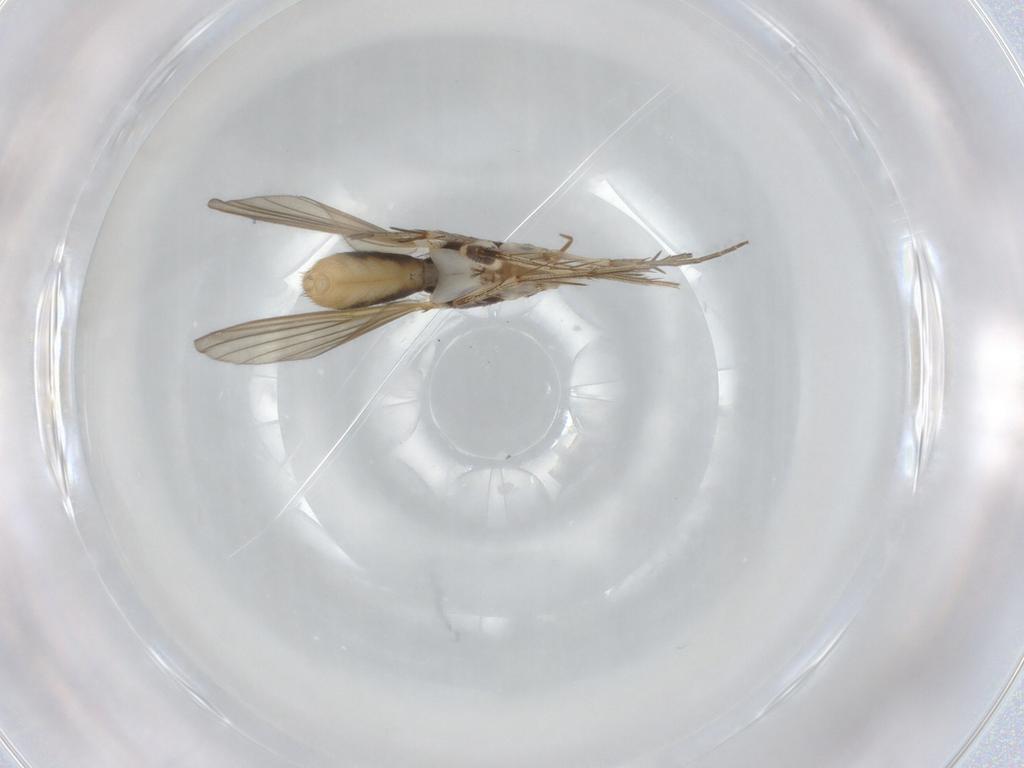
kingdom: Animalia
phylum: Arthropoda
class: Insecta
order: Diptera
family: Mycetophilidae
